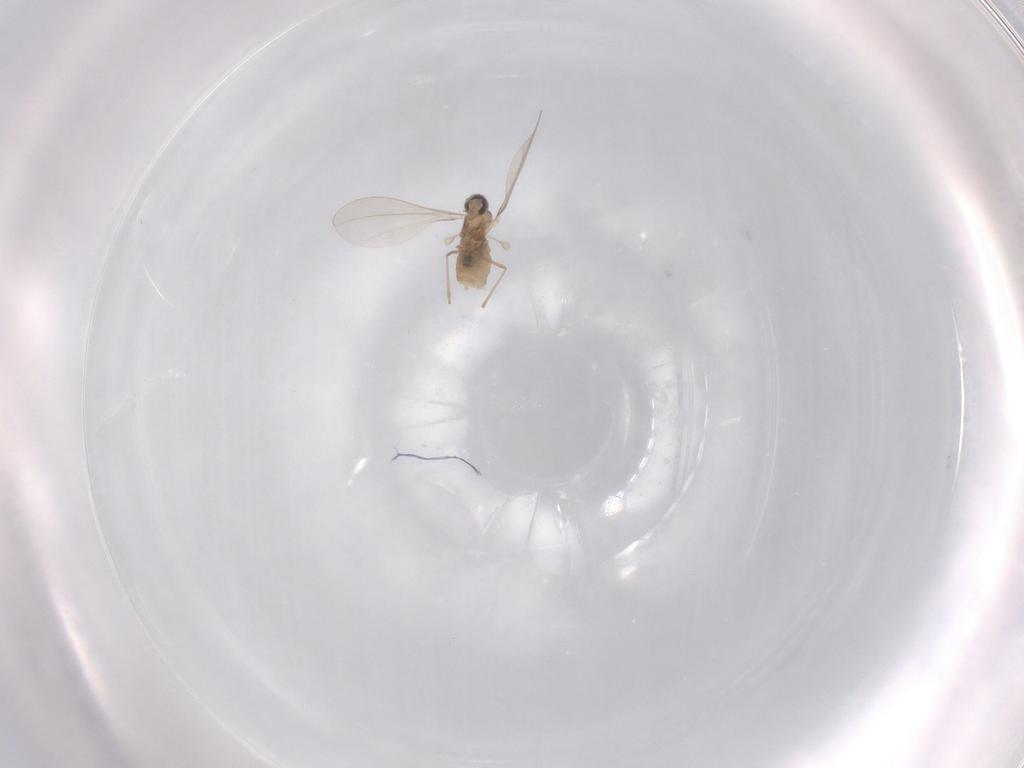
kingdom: Animalia
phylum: Arthropoda
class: Insecta
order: Diptera
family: Cecidomyiidae
